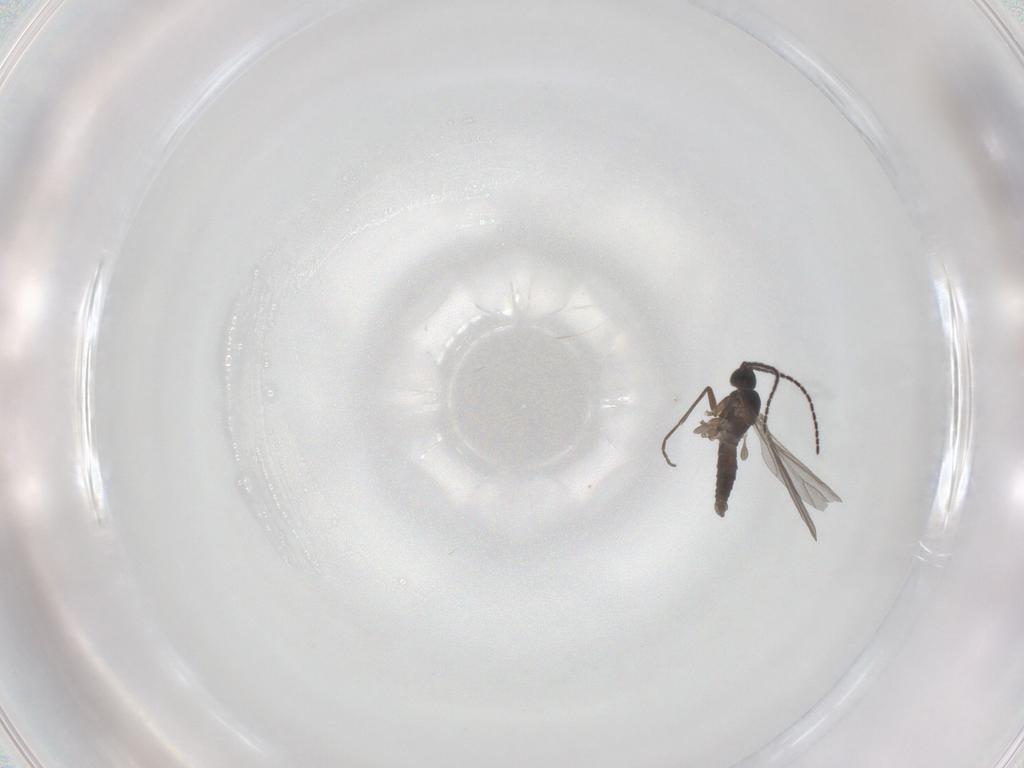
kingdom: Animalia
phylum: Arthropoda
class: Insecta
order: Diptera
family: Sciaridae
